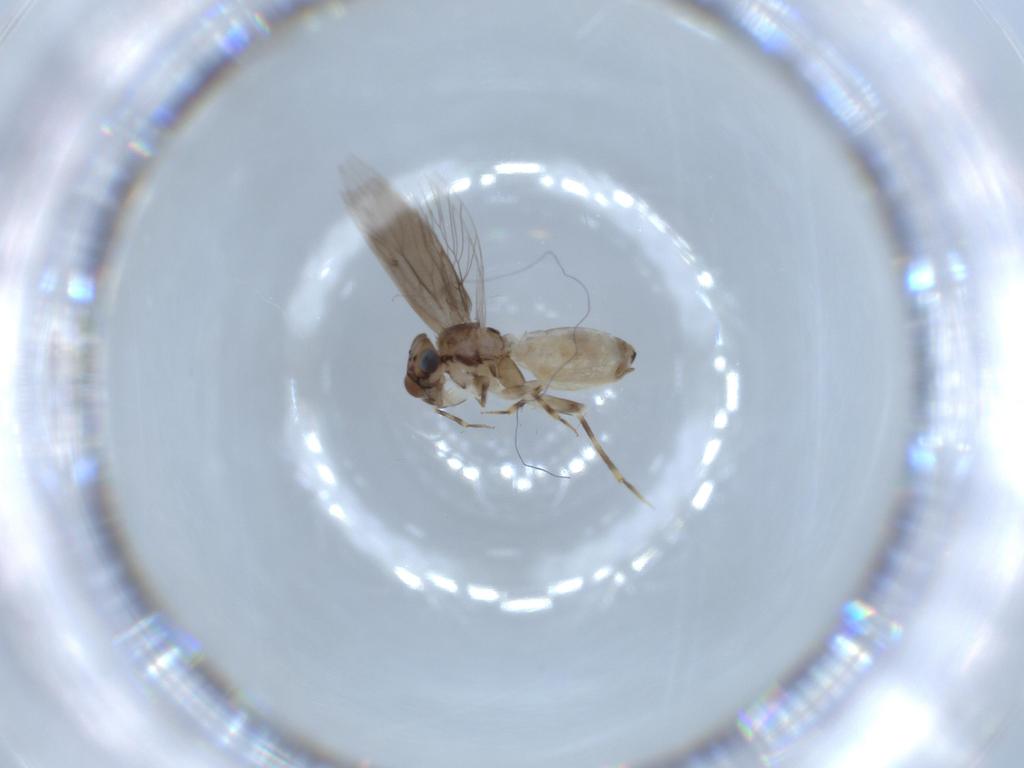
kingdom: Animalia
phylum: Arthropoda
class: Insecta
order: Psocodea
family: Lepidopsocidae
